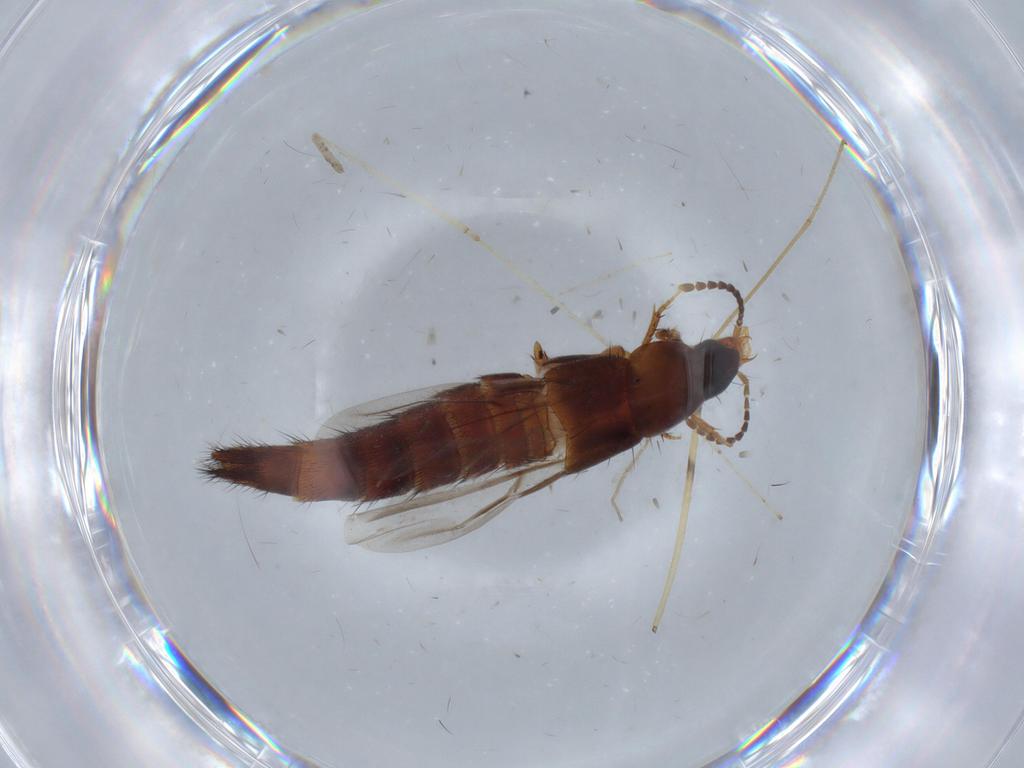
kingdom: Animalia
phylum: Arthropoda
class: Insecta
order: Coleoptera
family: Staphylinidae
